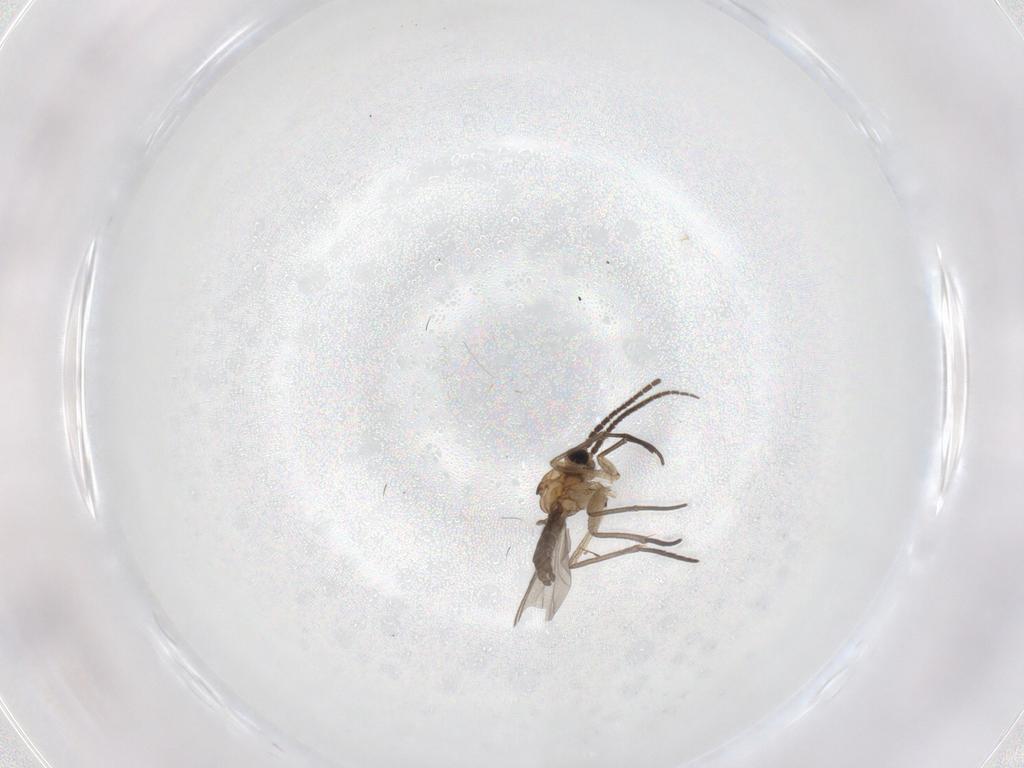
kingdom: Animalia
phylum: Arthropoda
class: Insecta
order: Diptera
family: Sciaridae
